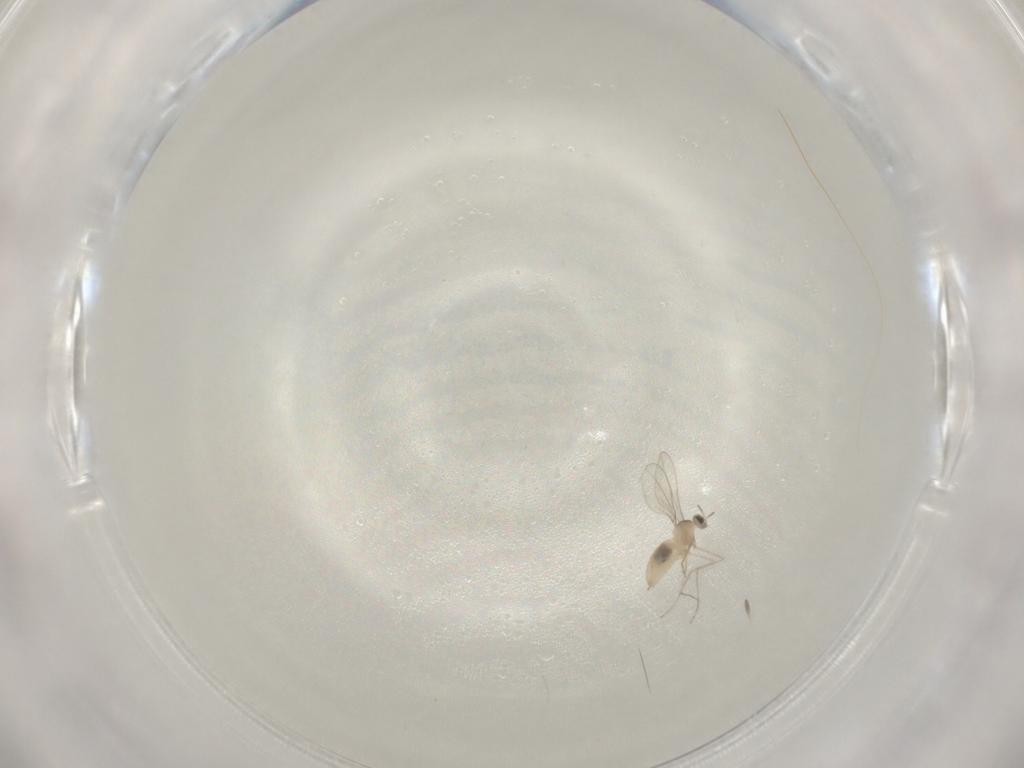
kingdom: Animalia
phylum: Arthropoda
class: Insecta
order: Diptera
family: Cecidomyiidae
